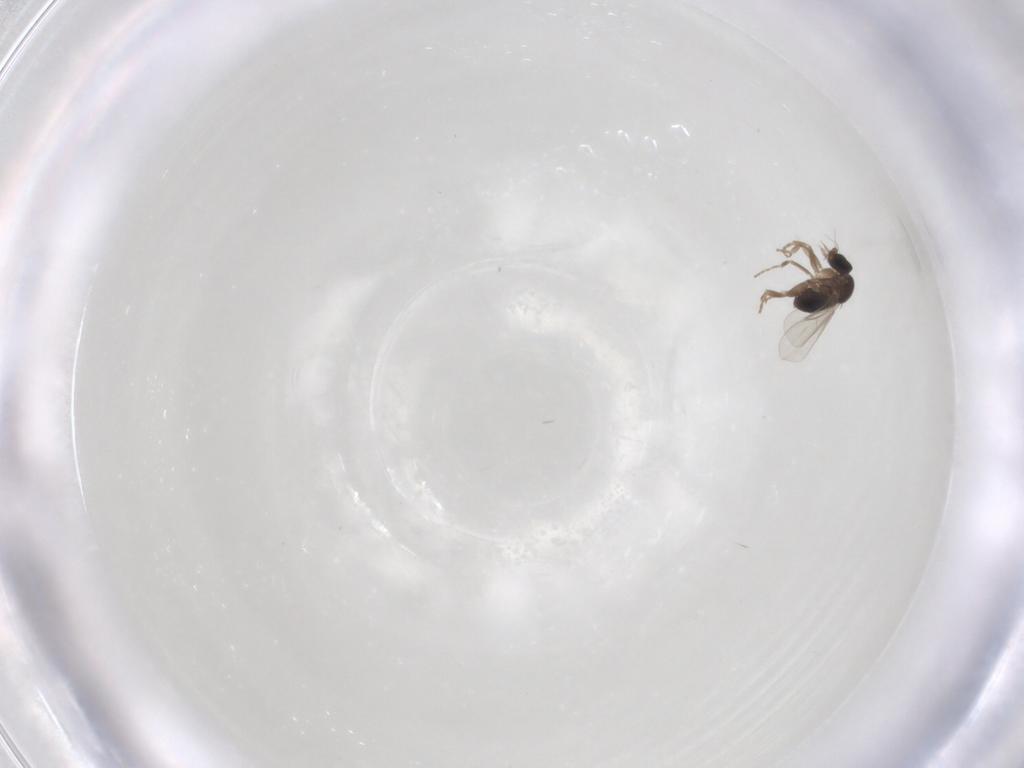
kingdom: Animalia
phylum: Arthropoda
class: Insecta
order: Diptera
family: Phoridae
